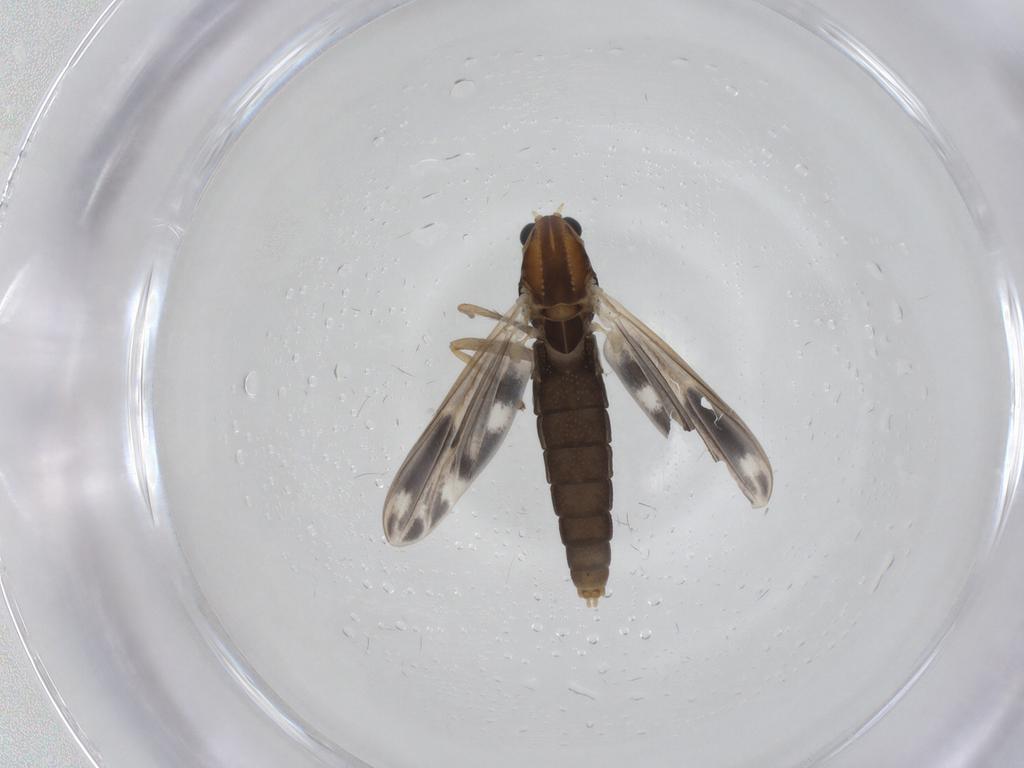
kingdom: Animalia
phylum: Arthropoda
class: Insecta
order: Diptera
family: Chironomidae
